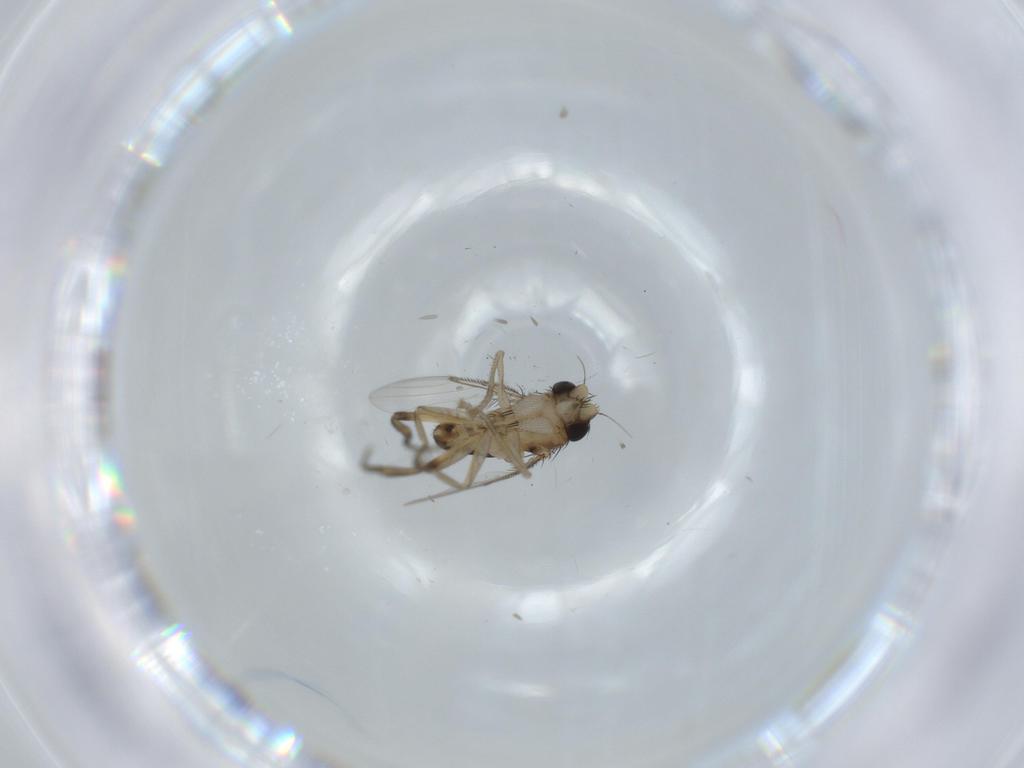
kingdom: Animalia
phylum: Arthropoda
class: Insecta
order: Diptera
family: Phoridae
